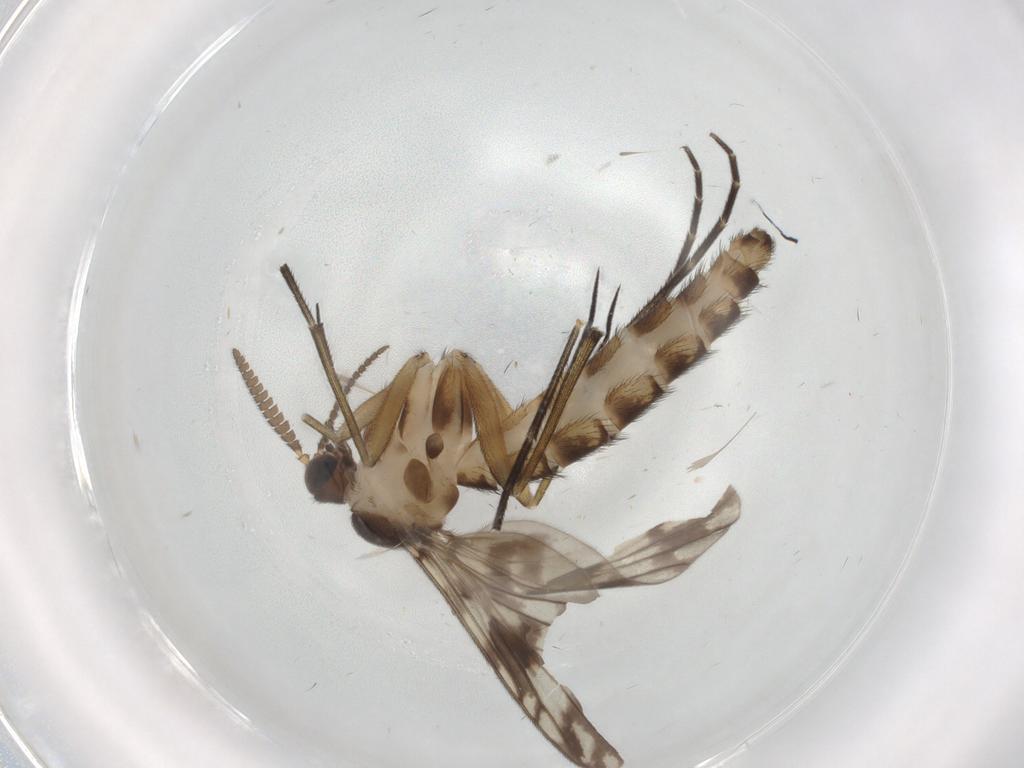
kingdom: Animalia
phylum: Arthropoda
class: Insecta
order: Diptera
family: Keroplatidae
